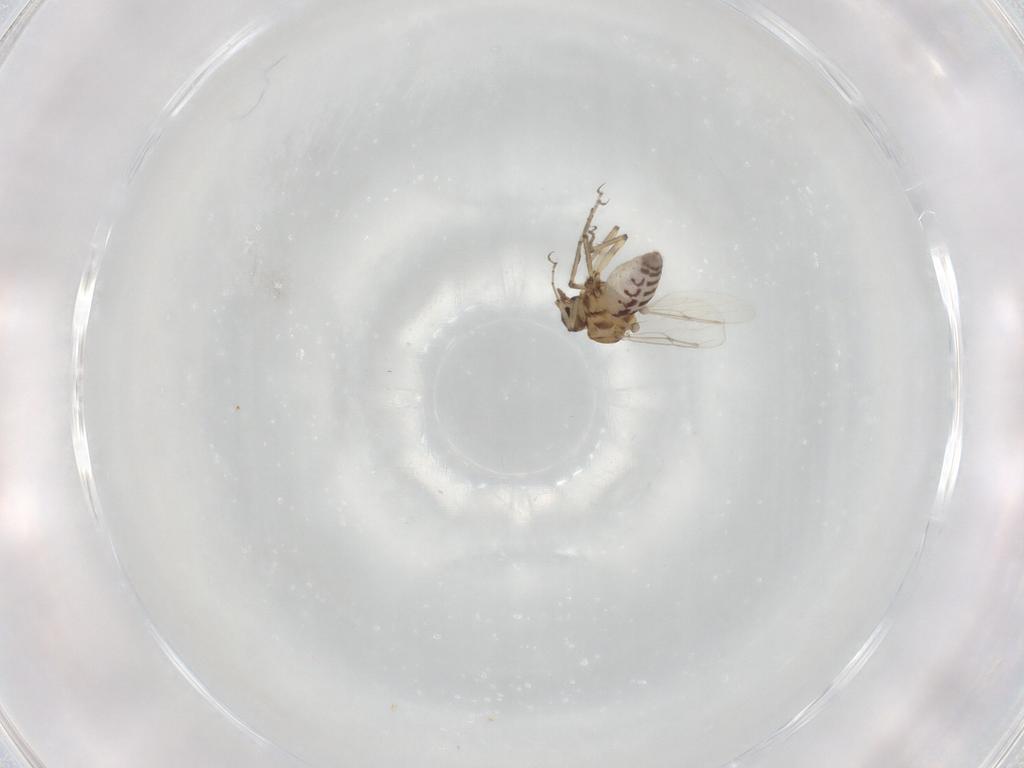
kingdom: Animalia
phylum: Arthropoda
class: Insecta
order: Diptera
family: Ceratopogonidae
